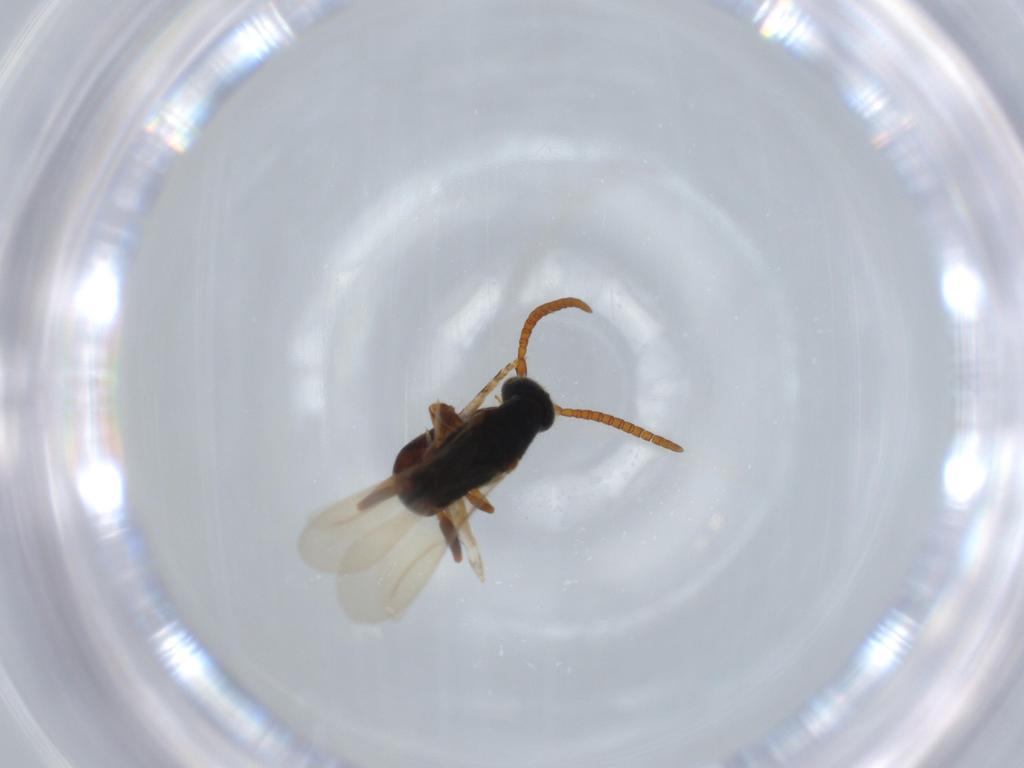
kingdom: Animalia
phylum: Arthropoda
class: Insecta
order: Hymenoptera
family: Bethylidae
